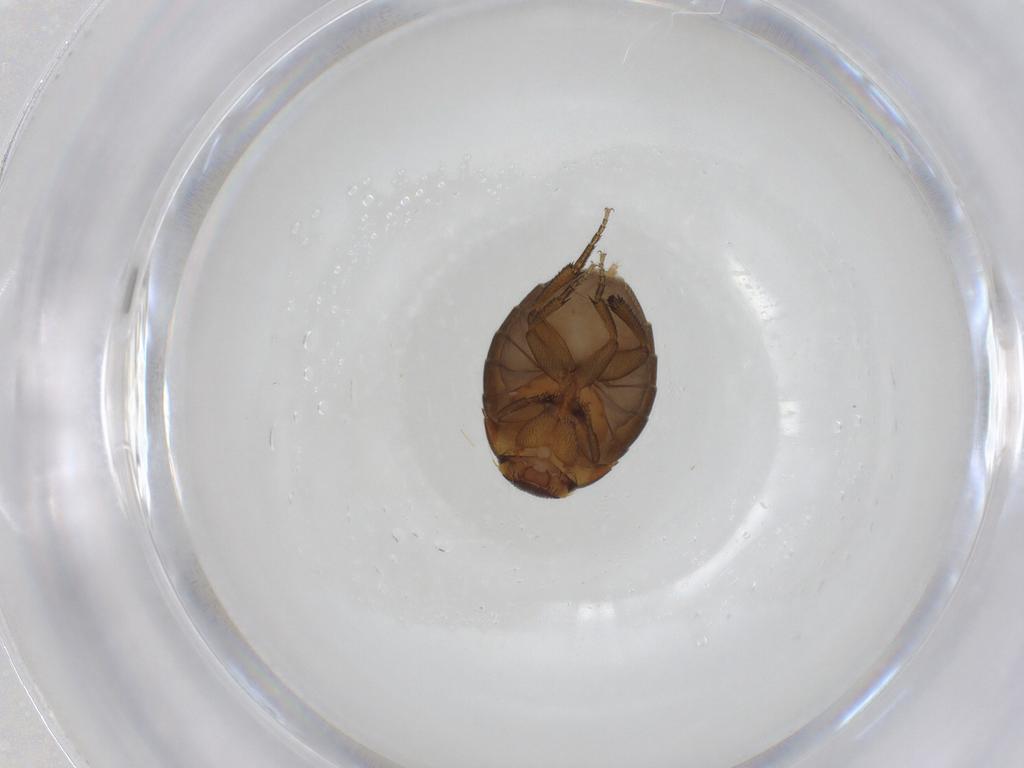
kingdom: Animalia
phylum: Arthropoda
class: Insecta
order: Diptera
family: Phoridae
